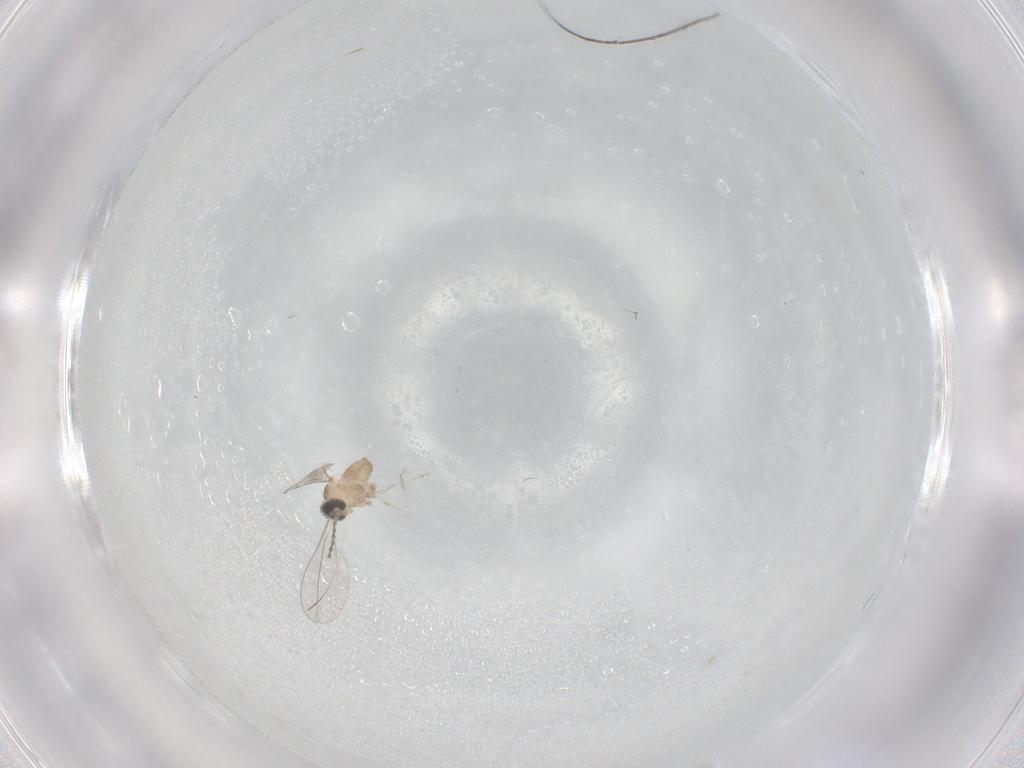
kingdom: Animalia
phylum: Arthropoda
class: Insecta
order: Diptera
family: Cecidomyiidae
